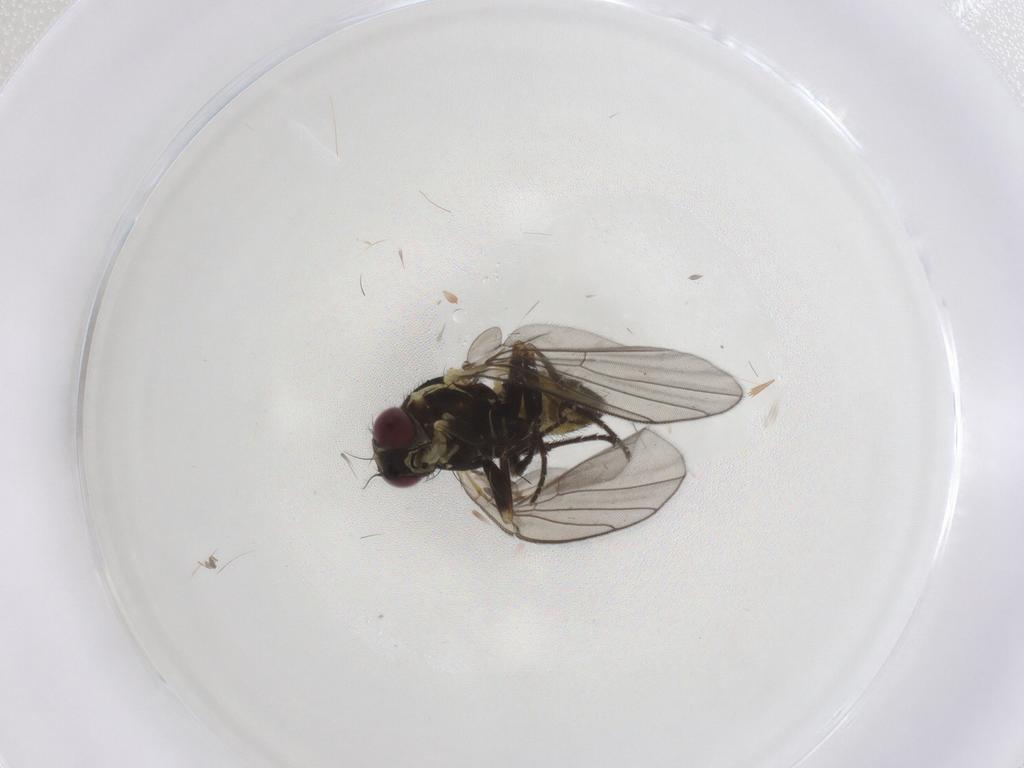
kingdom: Animalia
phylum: Arthropoda
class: Insecta
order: Diptera
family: Agromyzidae
